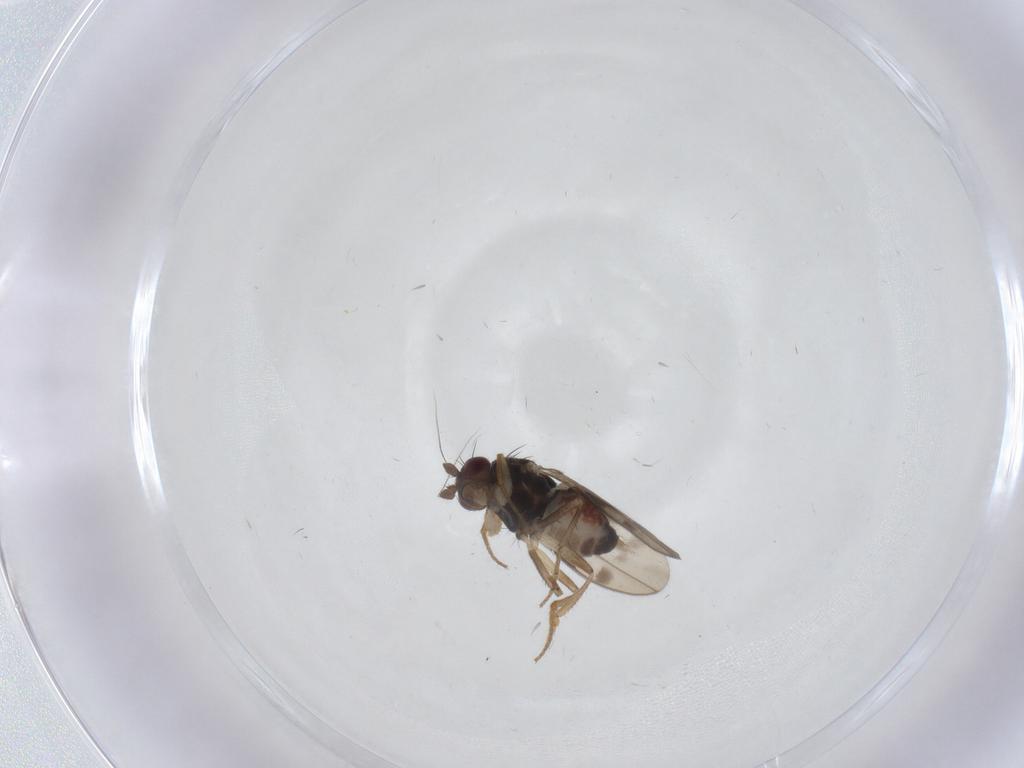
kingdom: Animalia
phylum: Arthropoda
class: Insecta
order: Diptera
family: Sphaeroceridae
